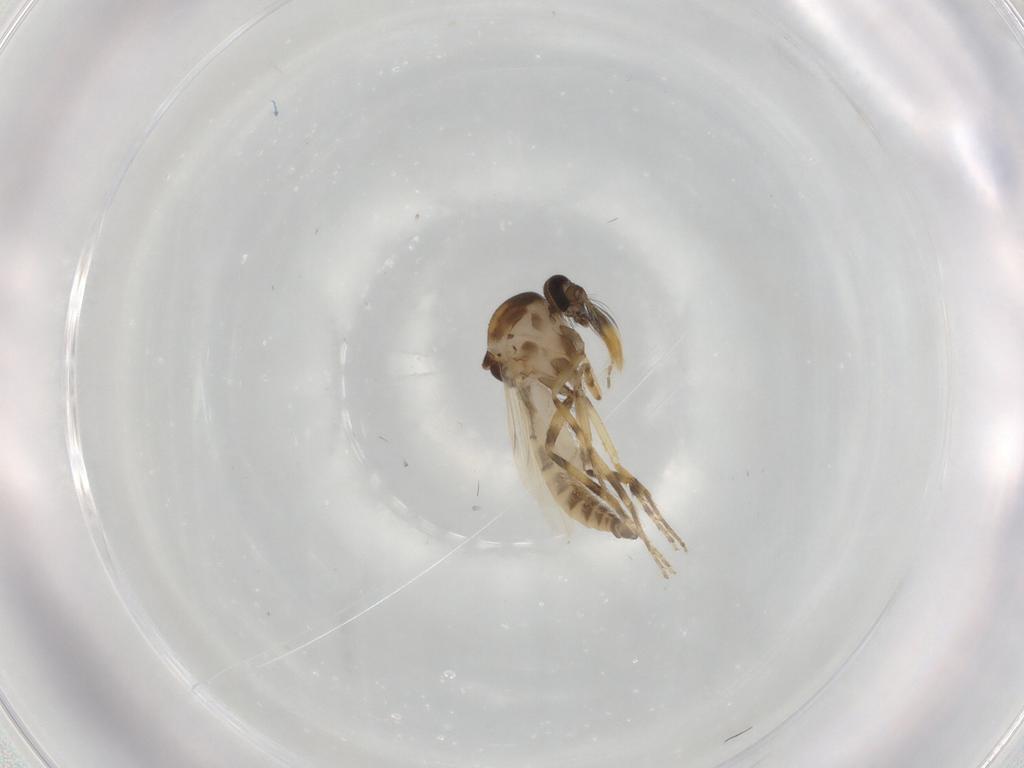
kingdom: Animalia
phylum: Arthropoda
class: Insecta
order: Diptera
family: Ceratopogonidae
